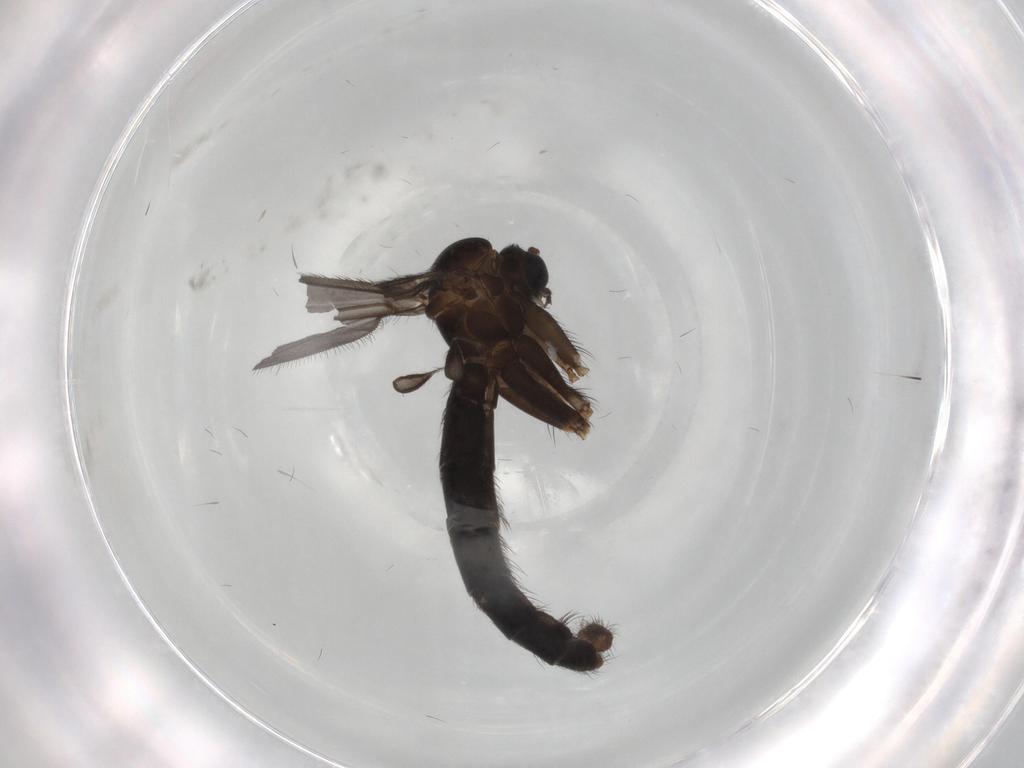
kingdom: Animalia
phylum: Arthropoda
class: Insecta
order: Diptera
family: Ditomyiidae
